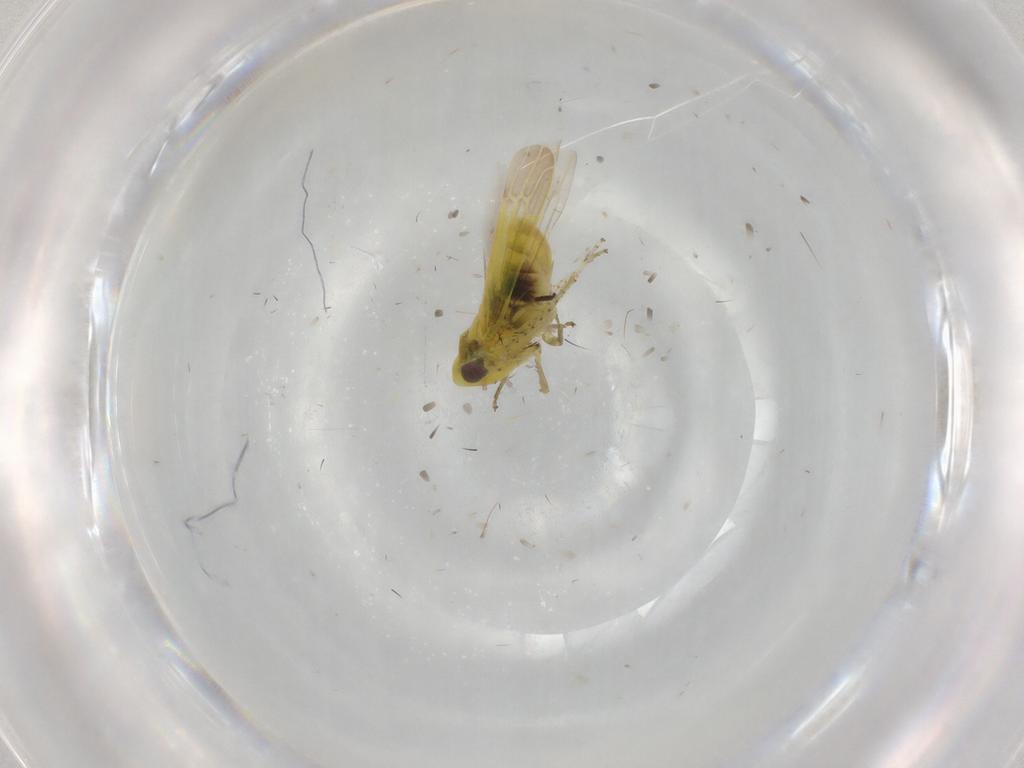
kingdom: Animalia
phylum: Arthropoda
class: Insecta
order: Hemiptera
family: Cicadellidae
